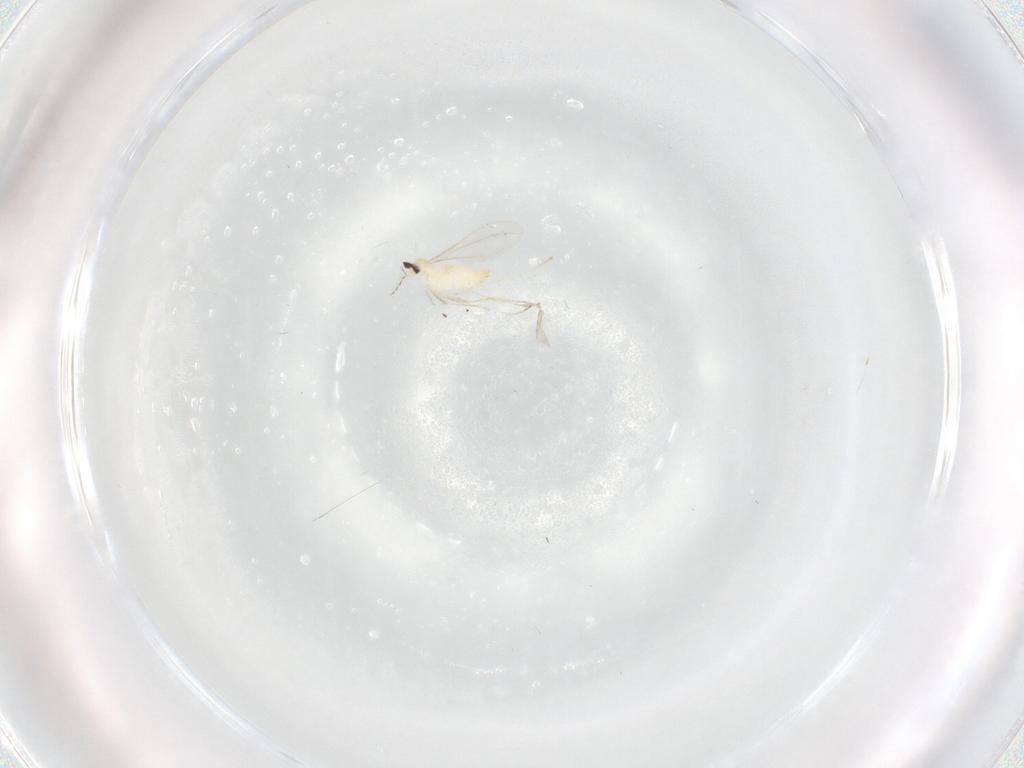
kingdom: Animalia
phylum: Arthropoda
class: Insecta
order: Diptera
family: Cecidomyiidae
